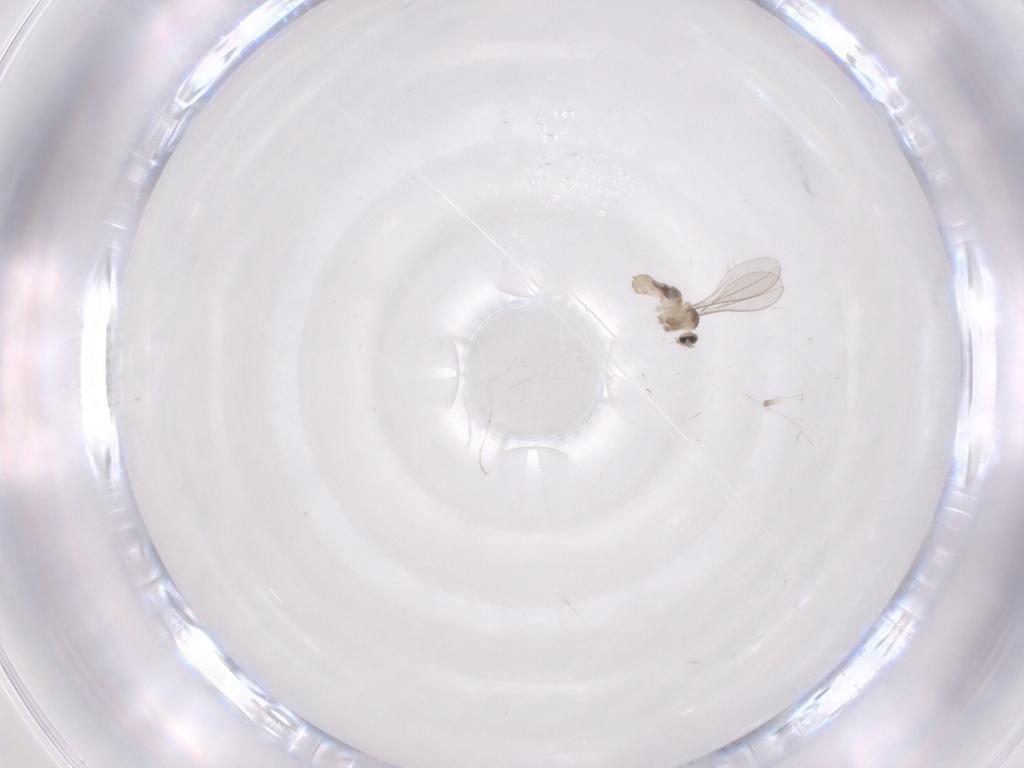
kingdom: Animalia
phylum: Arthropoda
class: Insecta
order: Diptera
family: Cecidomyiidae
